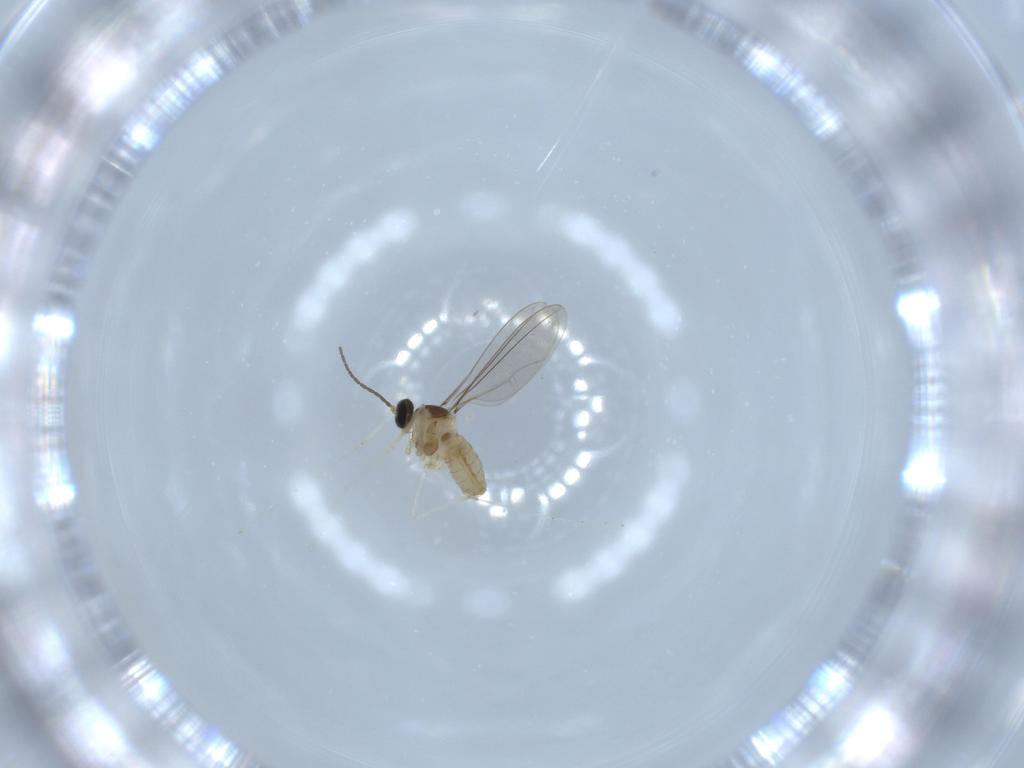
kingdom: Animalia
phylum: Arthropoda
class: Insecta
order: Diptera
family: Cecidomyiidae
